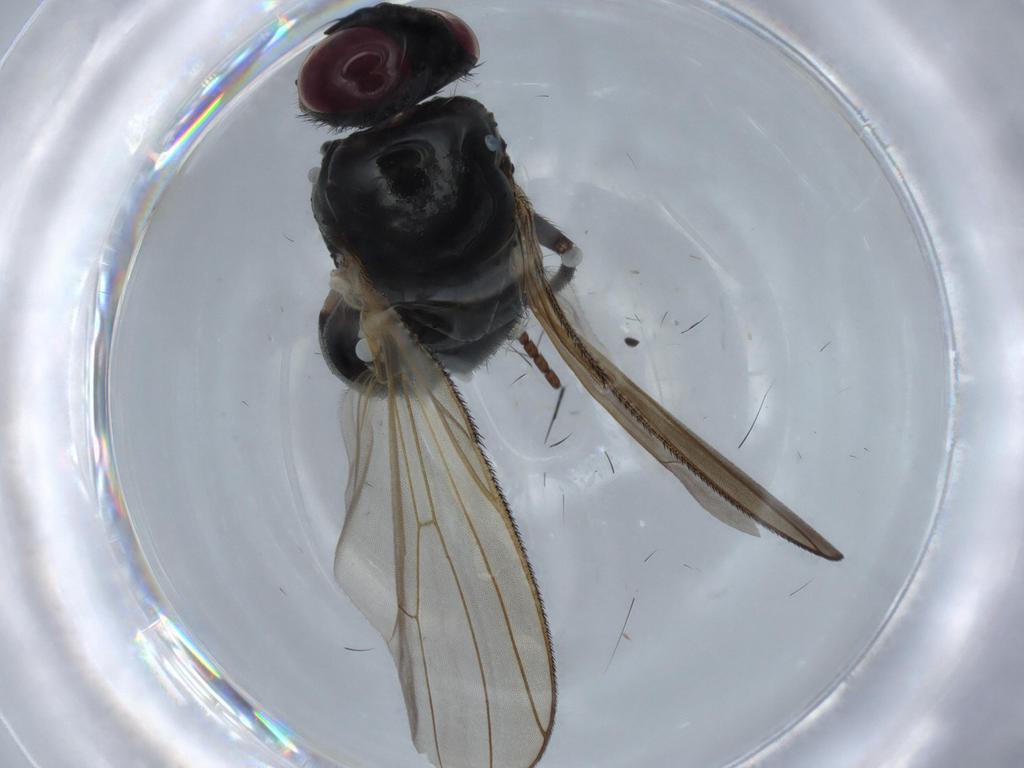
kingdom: Animalia
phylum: Arthropoda
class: Insecta
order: Diptera
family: Anthomyiidae
